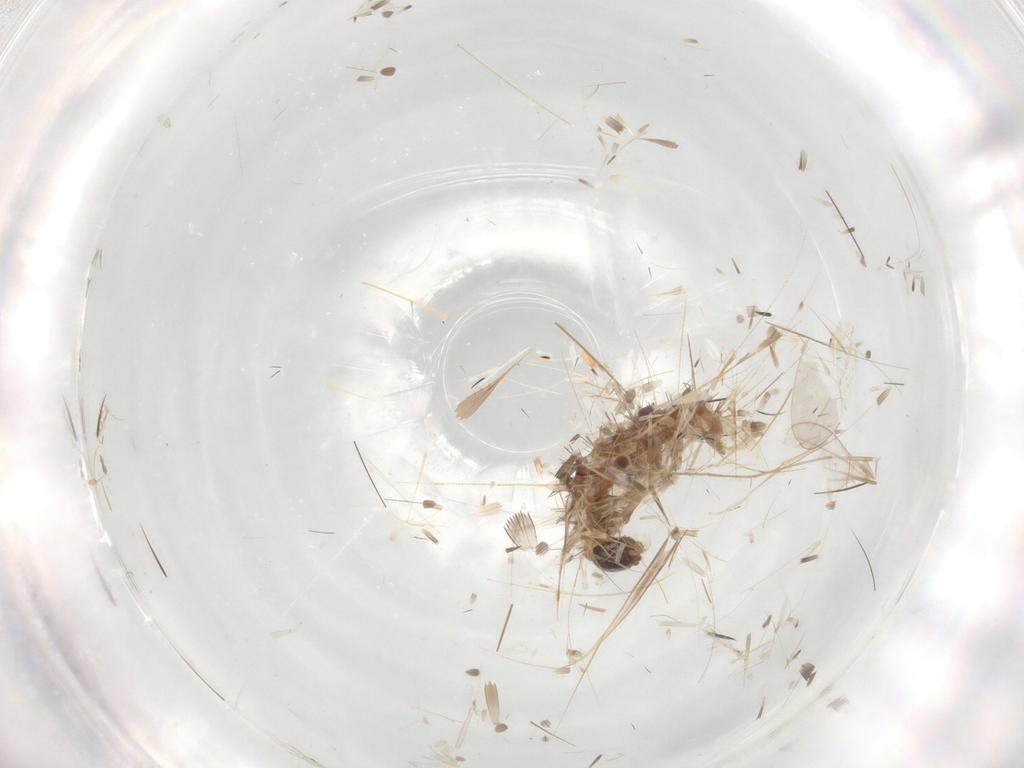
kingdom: Animalia
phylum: Arthropoda
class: Insecta
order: Lepidoptera
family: Erebidae
